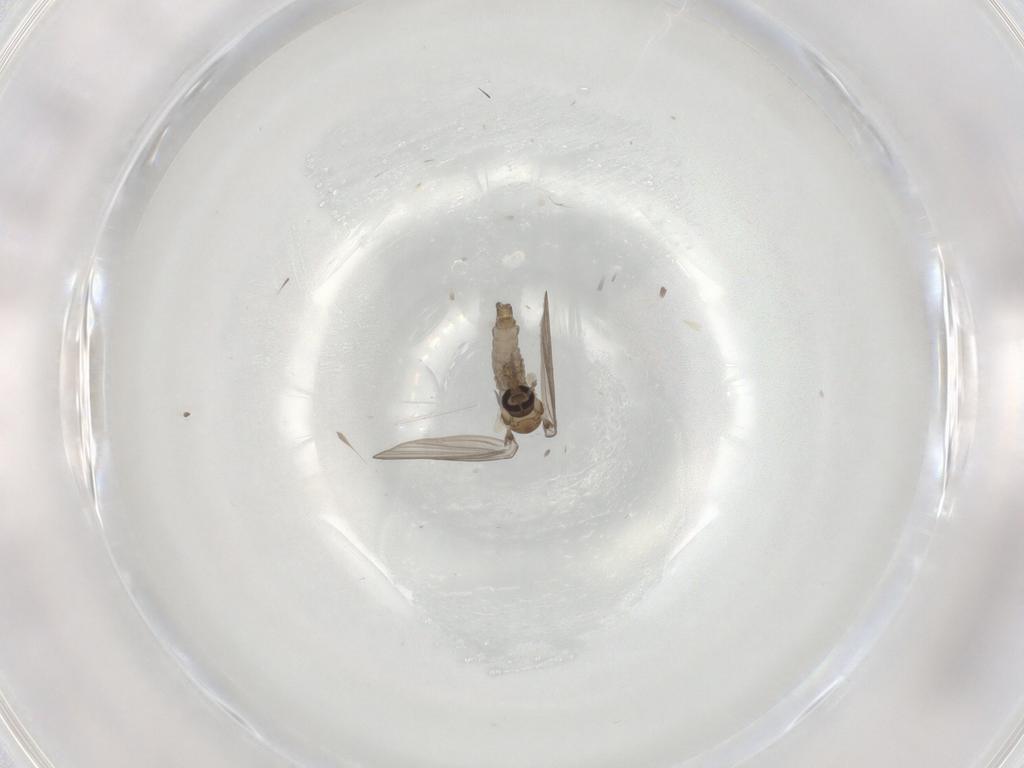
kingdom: Animalia
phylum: Arthropoda
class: Insecta
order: Diptera
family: Psychodidae
